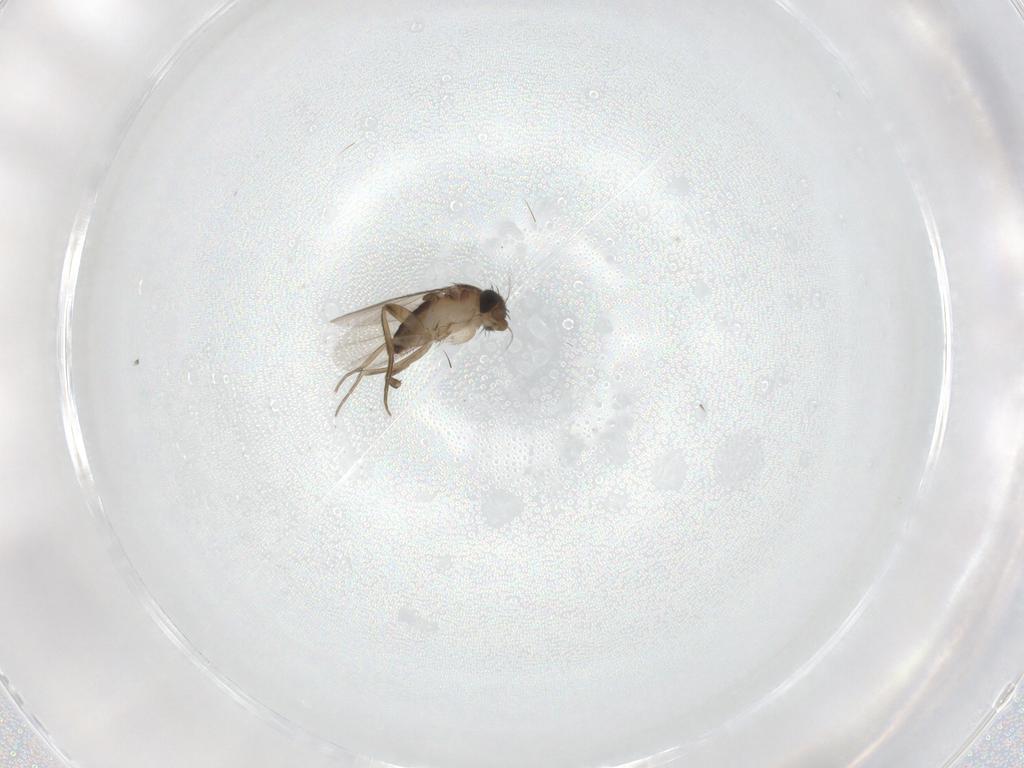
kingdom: Animalia
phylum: Arthropoda
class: Insecta
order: Diptera
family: Phoridae
